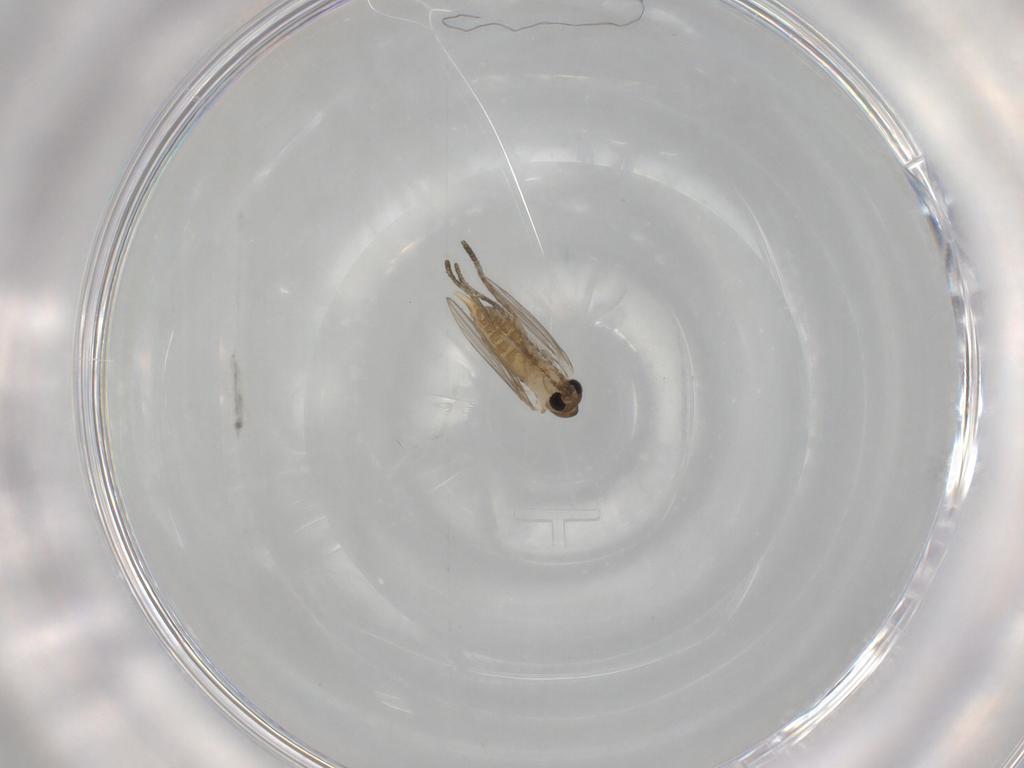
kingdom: Animalia
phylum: Arthropoda
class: Insecta
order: Diptera
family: Psychodidae
